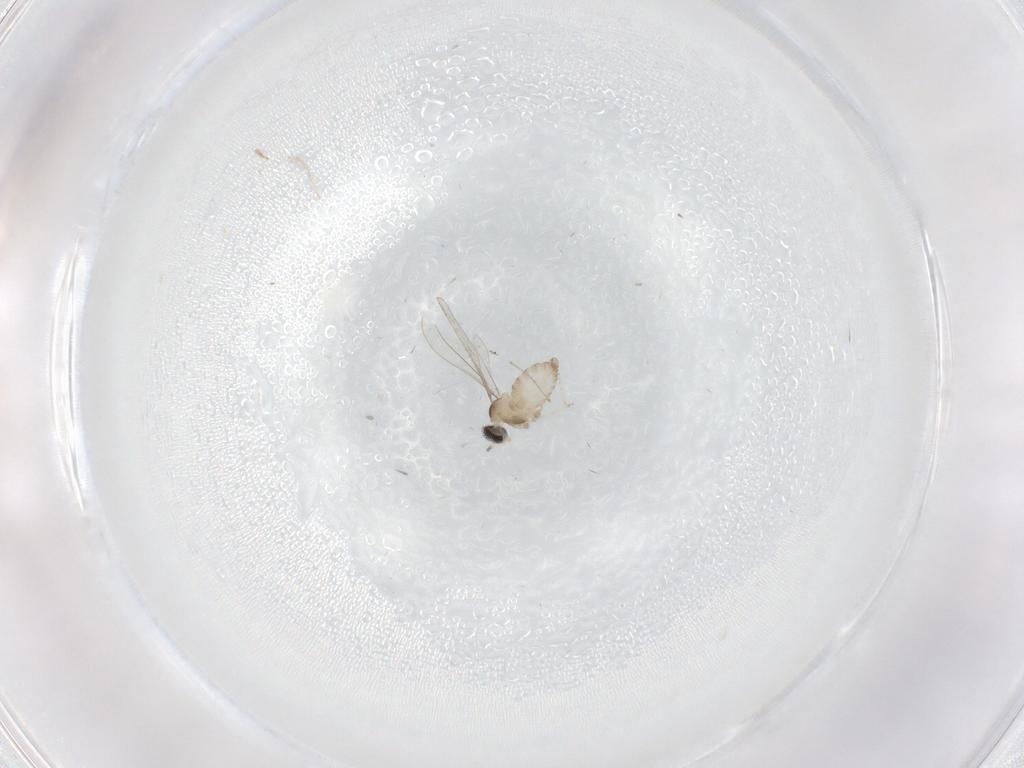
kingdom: Animalia
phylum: Arthropoda
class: Insecta
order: Diptera
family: Cecidomyiidae
